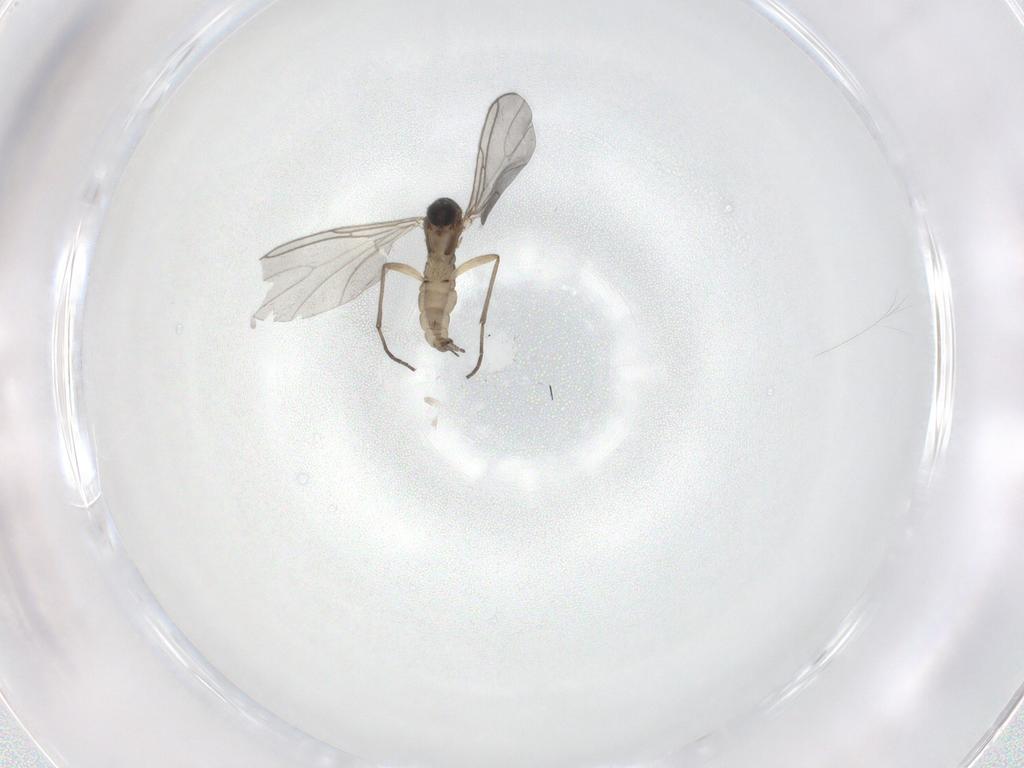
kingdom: Animalia
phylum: Arthropoda
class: Insecta
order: Diptera
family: Sciaridae
